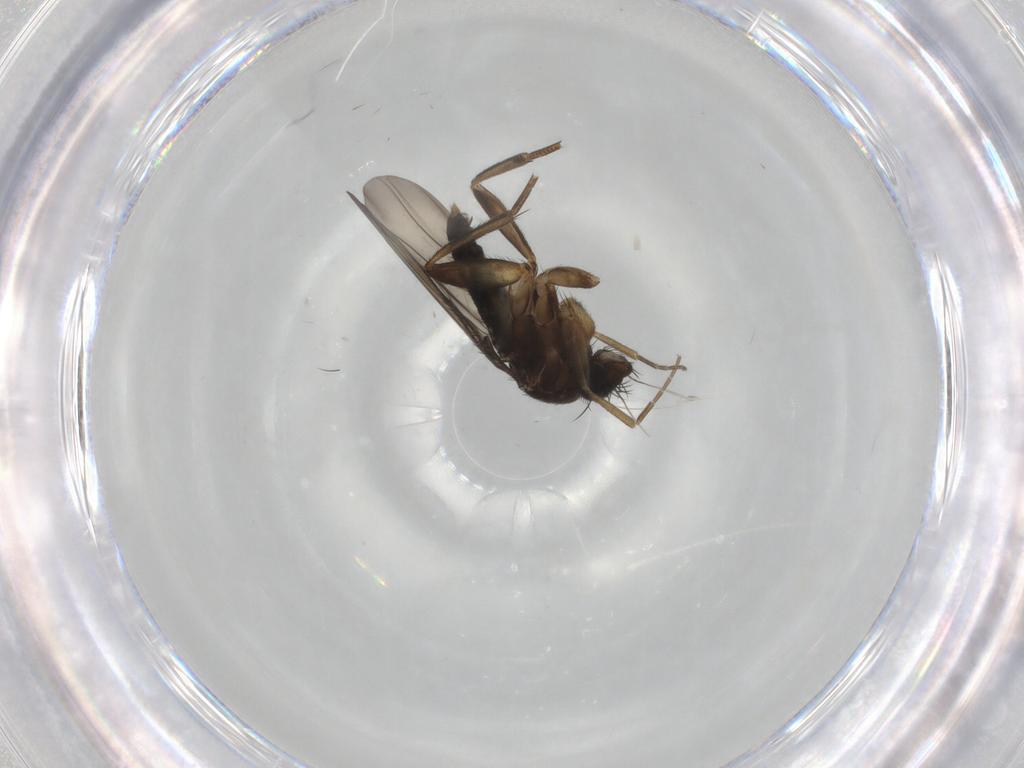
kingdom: Animalia
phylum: Arthropoda
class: Insecta
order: Diptera
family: Phoridae
